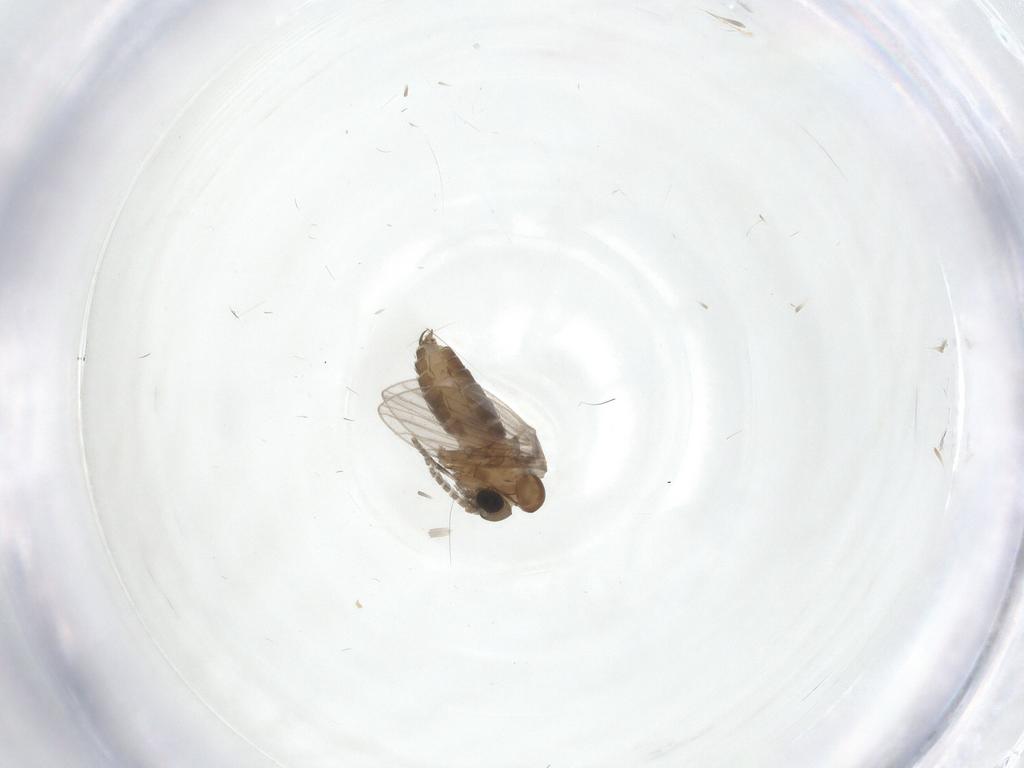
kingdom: Animalia
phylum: Arthropoda
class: Insecta
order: Diptera
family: Chironomidae
